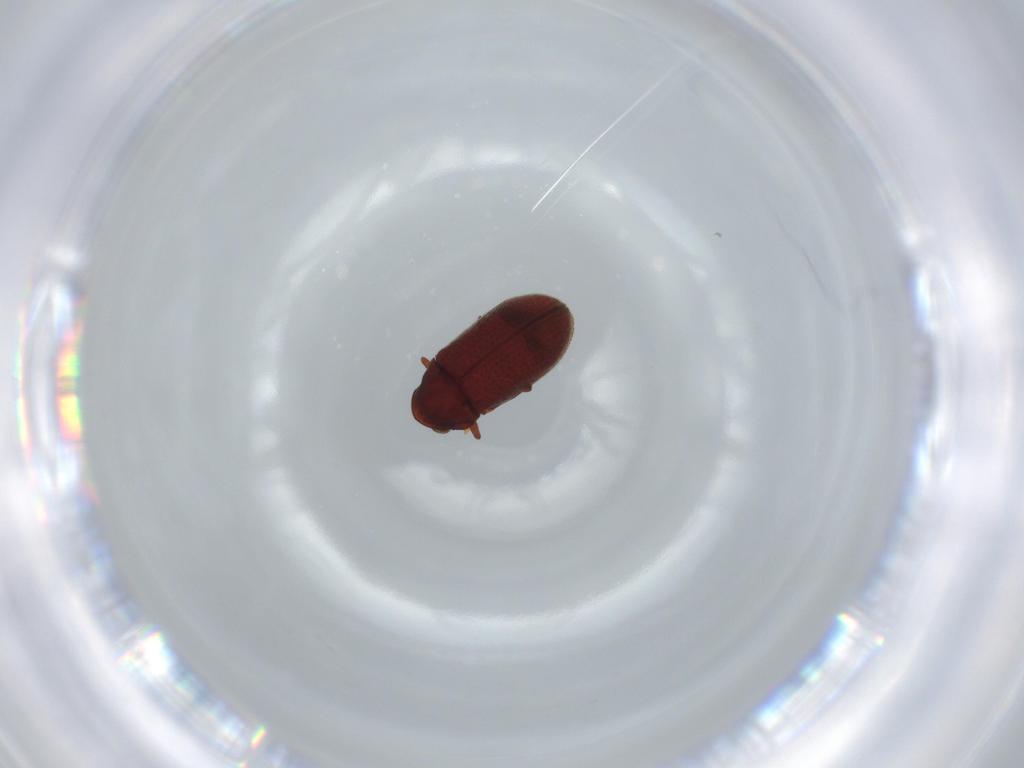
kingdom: Animalia
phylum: Arthropoda
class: Insecta
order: Coleoptera
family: Anobiidae
